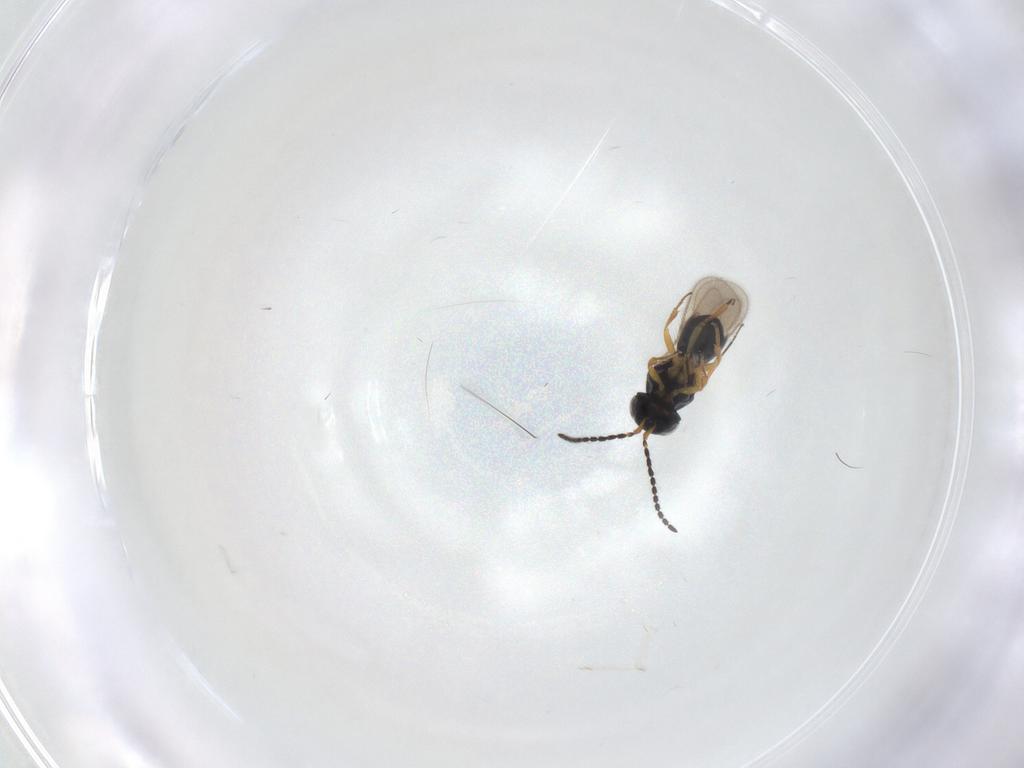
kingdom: Animalia
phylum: Arthropoda
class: Insecta
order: Hymenoptera
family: Scelionidae
